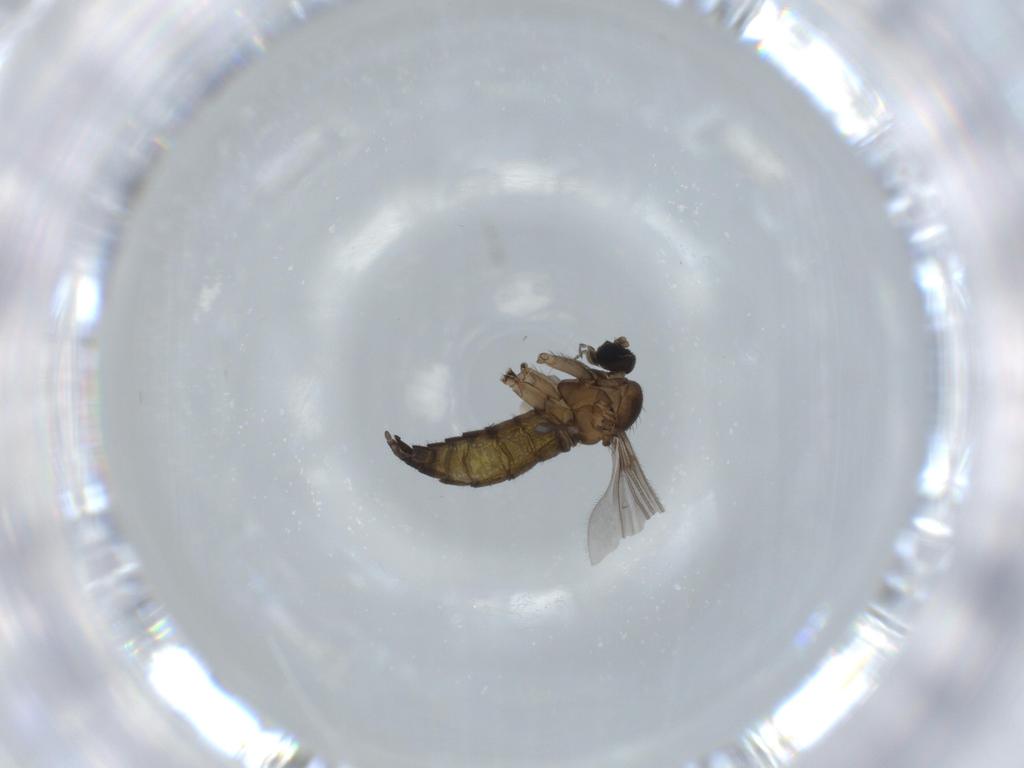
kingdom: Animalia
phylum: Arthropoda
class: Insecta
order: Diptera
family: Sciaridae
